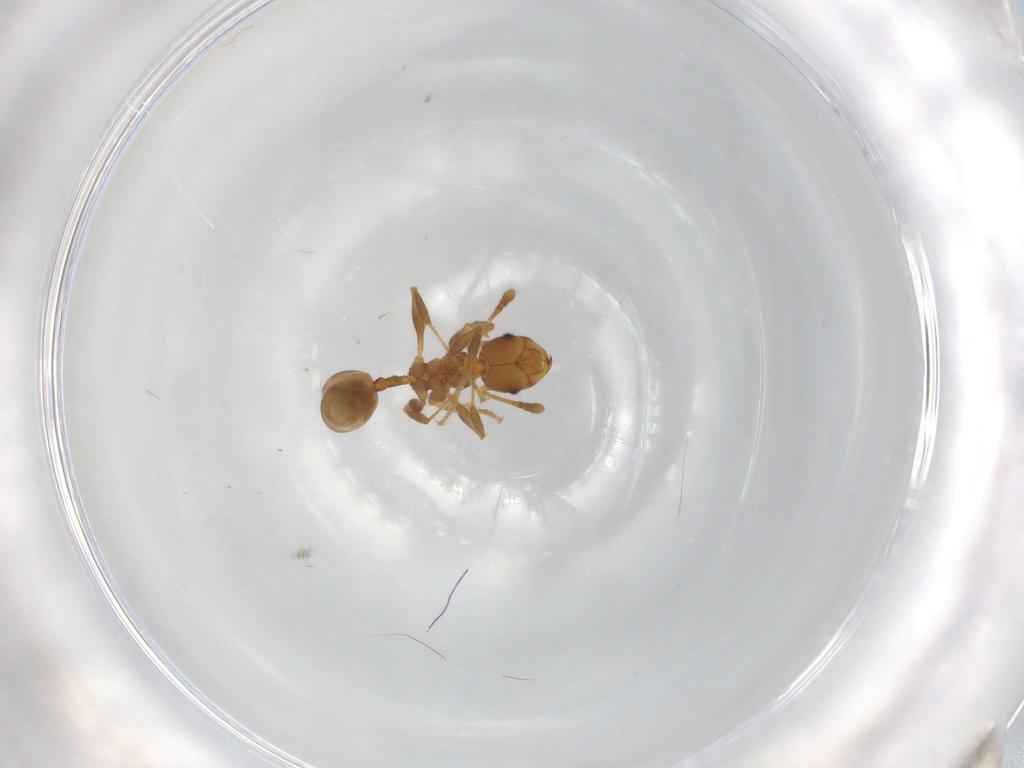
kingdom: Animalia
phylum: Arthropoda
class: Insecta
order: Hymenoptera
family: Formicidae
